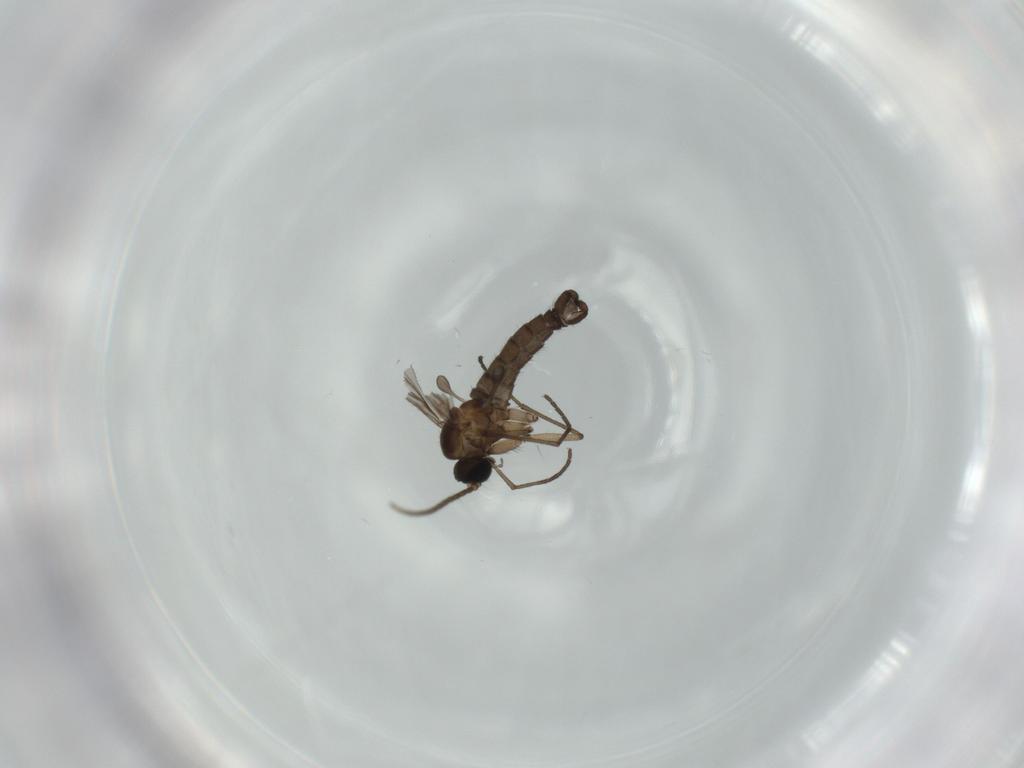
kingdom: Animalia
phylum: Arthropoda
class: Insecta
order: Diptera
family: Sciaridae
